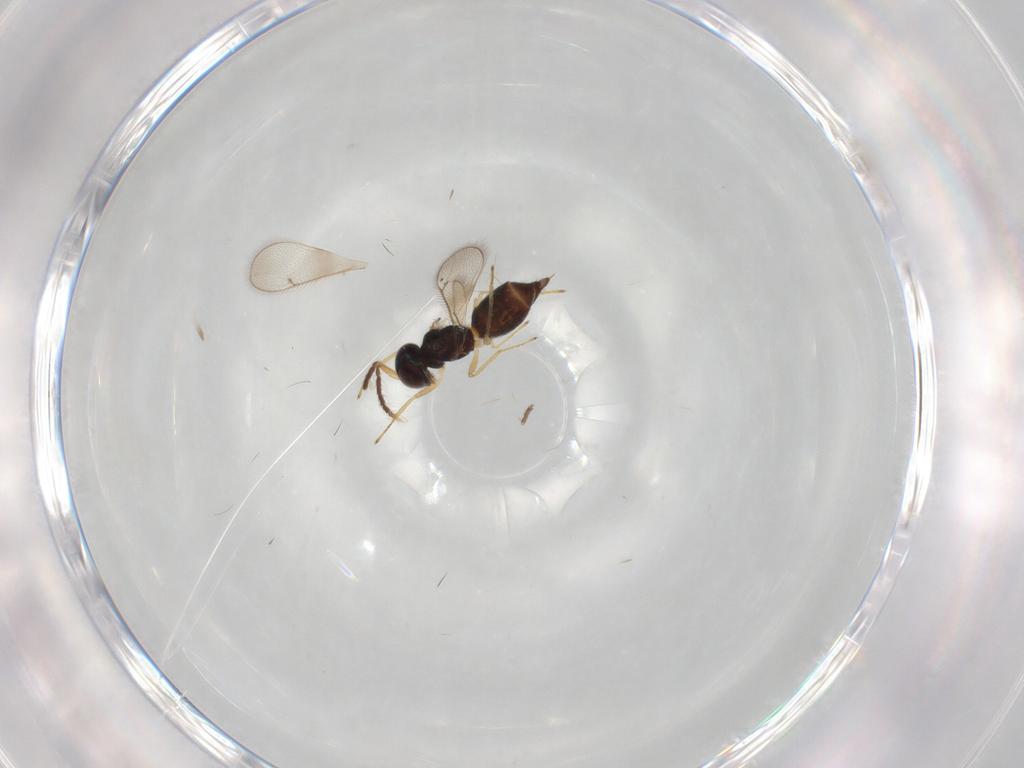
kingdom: Animalia
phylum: Arthropoda
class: Insecta
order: Hymenoptera
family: Eulophidae
